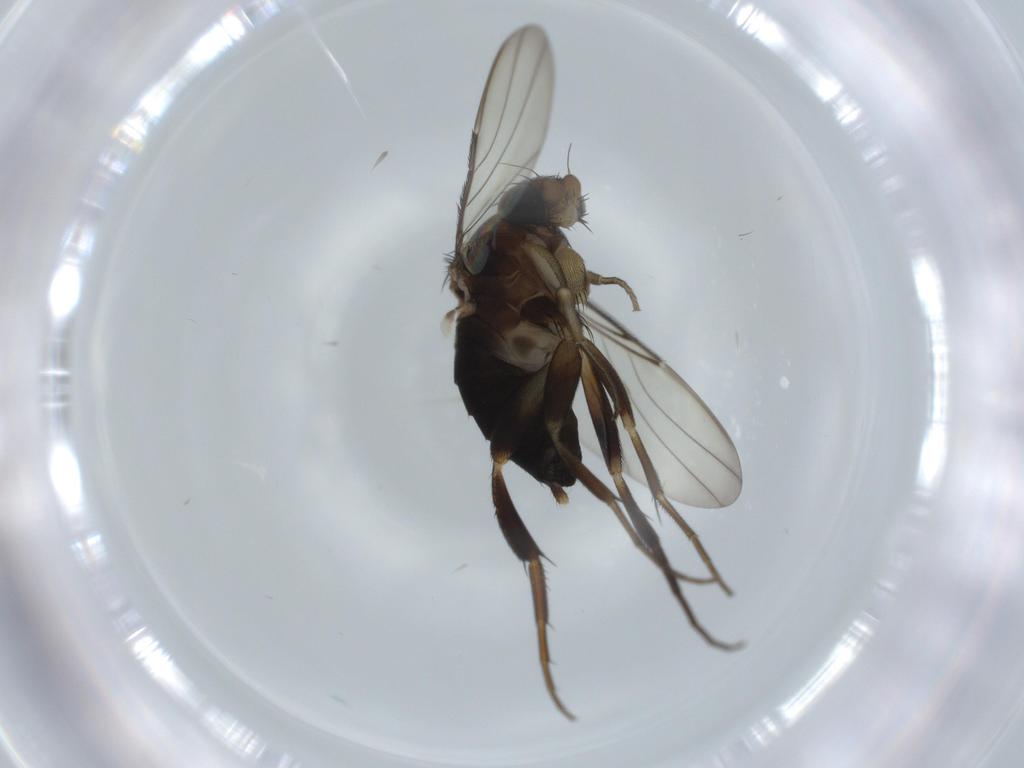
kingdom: Animalia
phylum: Arthropoda
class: Insecta
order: Diptera
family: Phoridae
